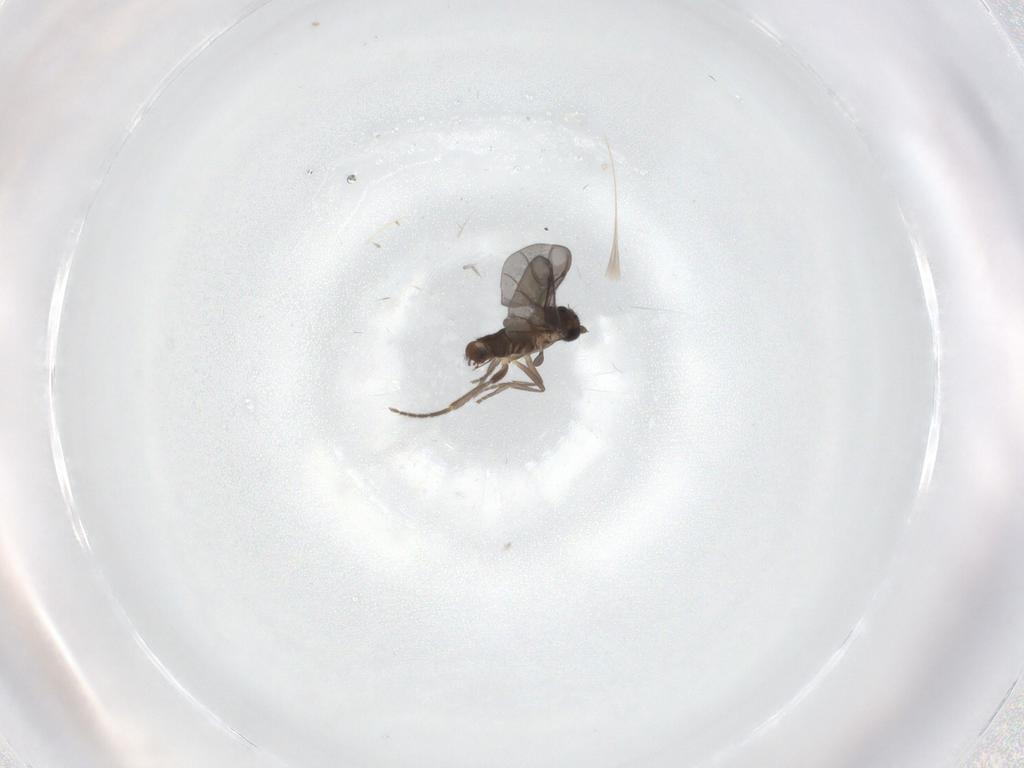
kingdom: Animalia
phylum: Arthropoda
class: Insecta
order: Diptera
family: Phoridae
